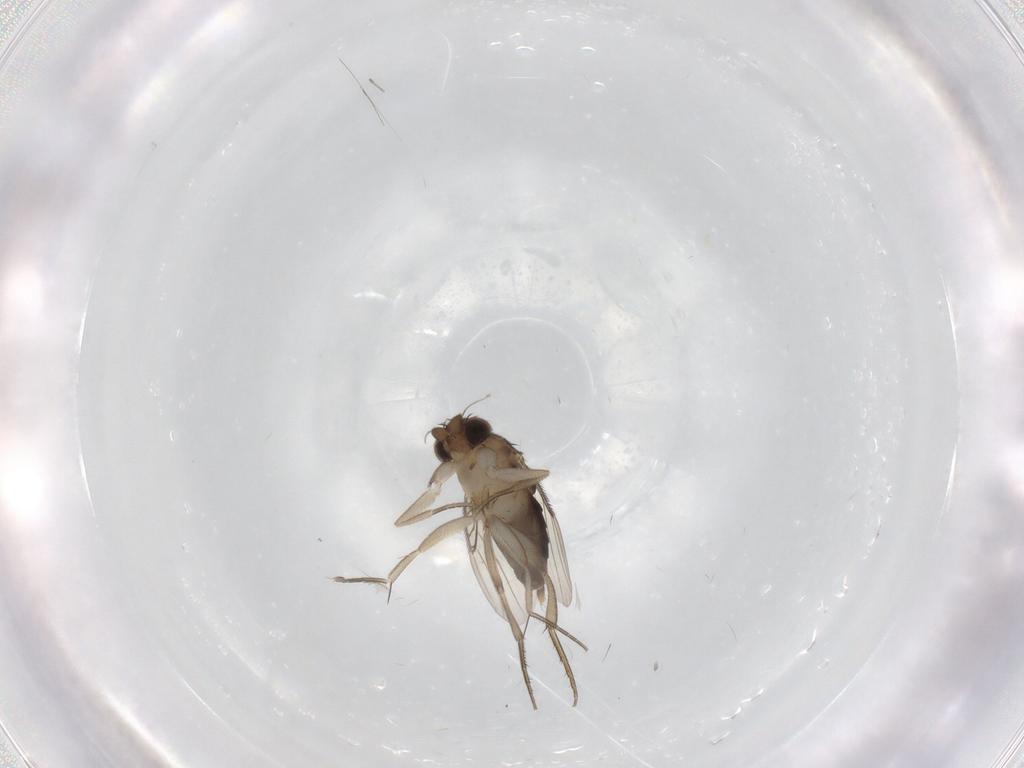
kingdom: Animalia
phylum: Arthropoda
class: Insecta
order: Diptera
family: Phoridae
